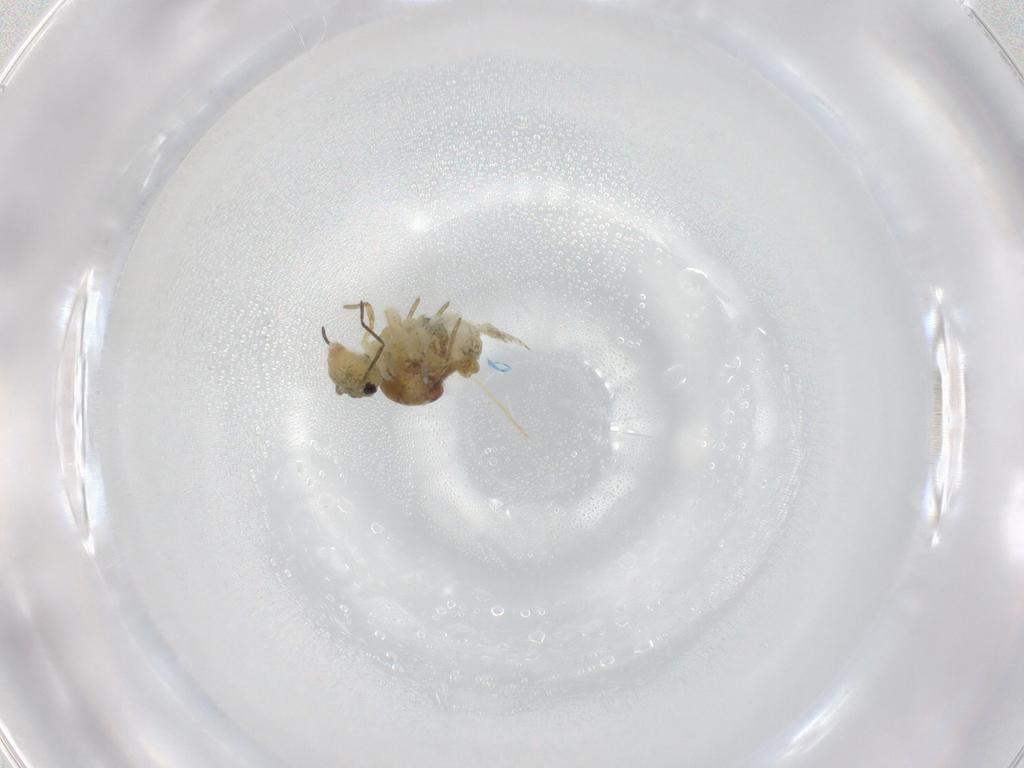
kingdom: Animalia
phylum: Arthropoda
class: Collembola
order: Symphypleona
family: Sminthuridae
